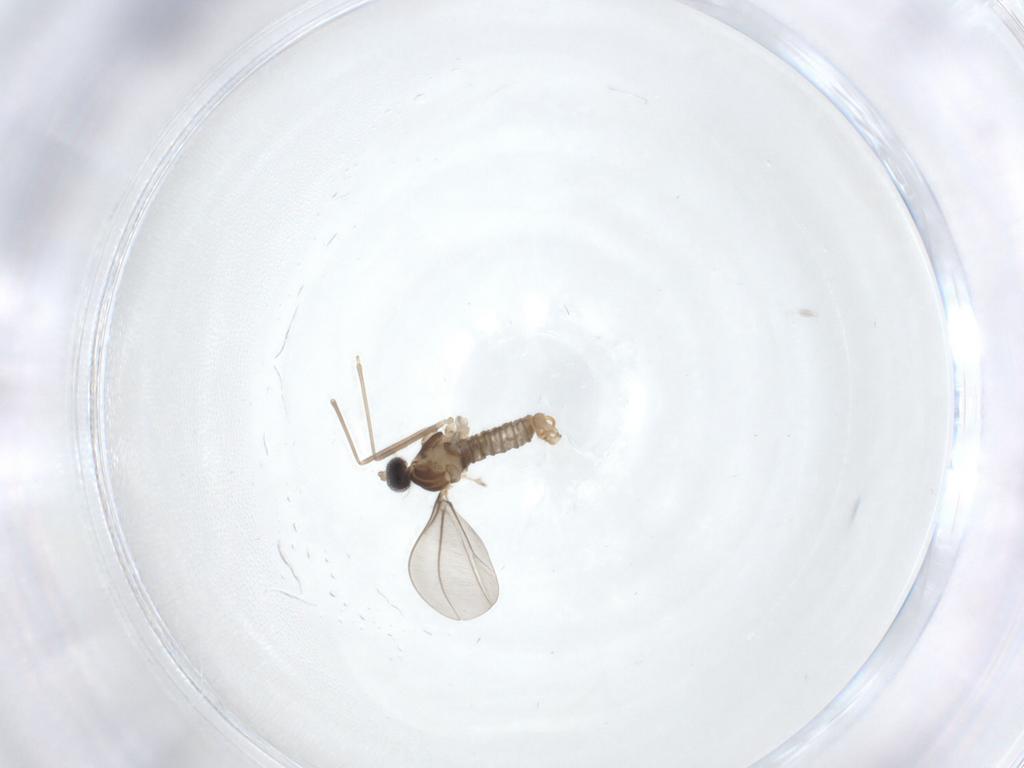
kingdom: Animalia
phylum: Arthropoda
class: Insecta
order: Diptera
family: Cecidomyiidae
